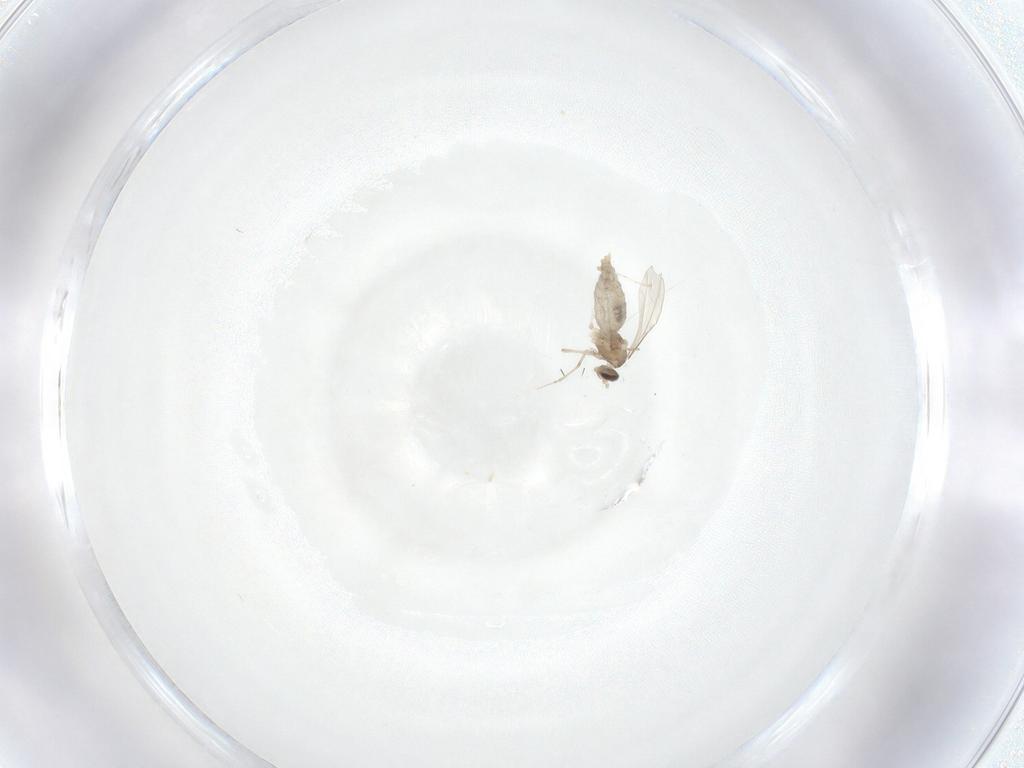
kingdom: Animalia
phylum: Arthropoda
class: Insecta
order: Diptera
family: Cecidomyiidae
